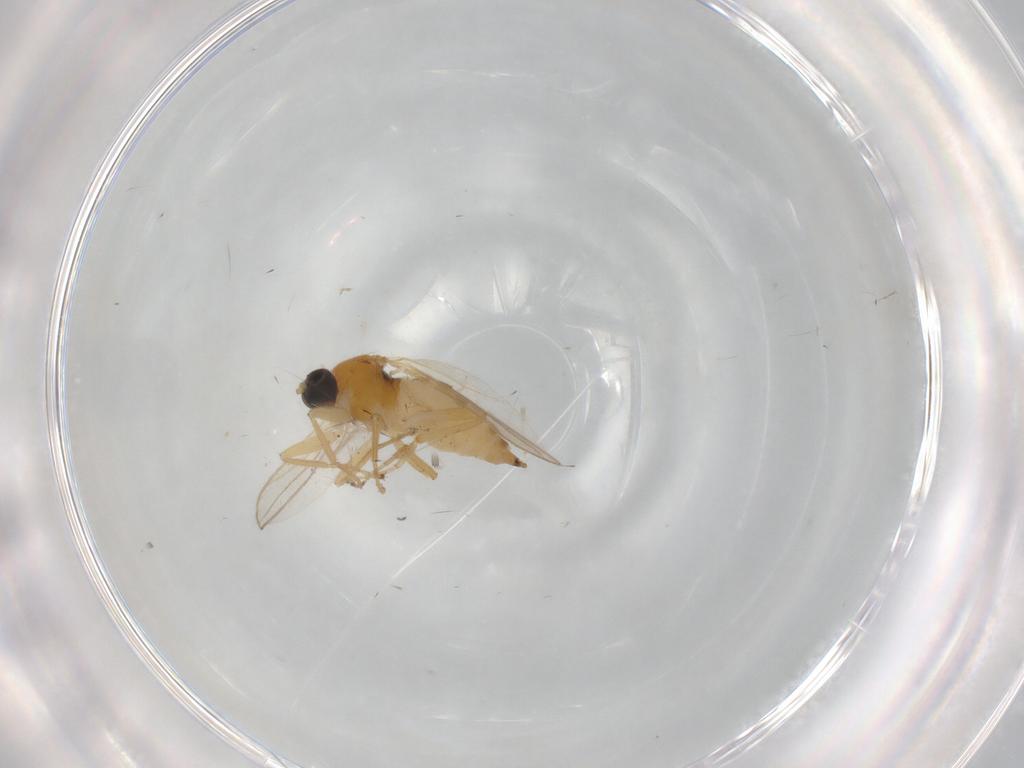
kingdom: Animalia
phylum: Arthropoda
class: Insecta
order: Diptera
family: Hybotidae
